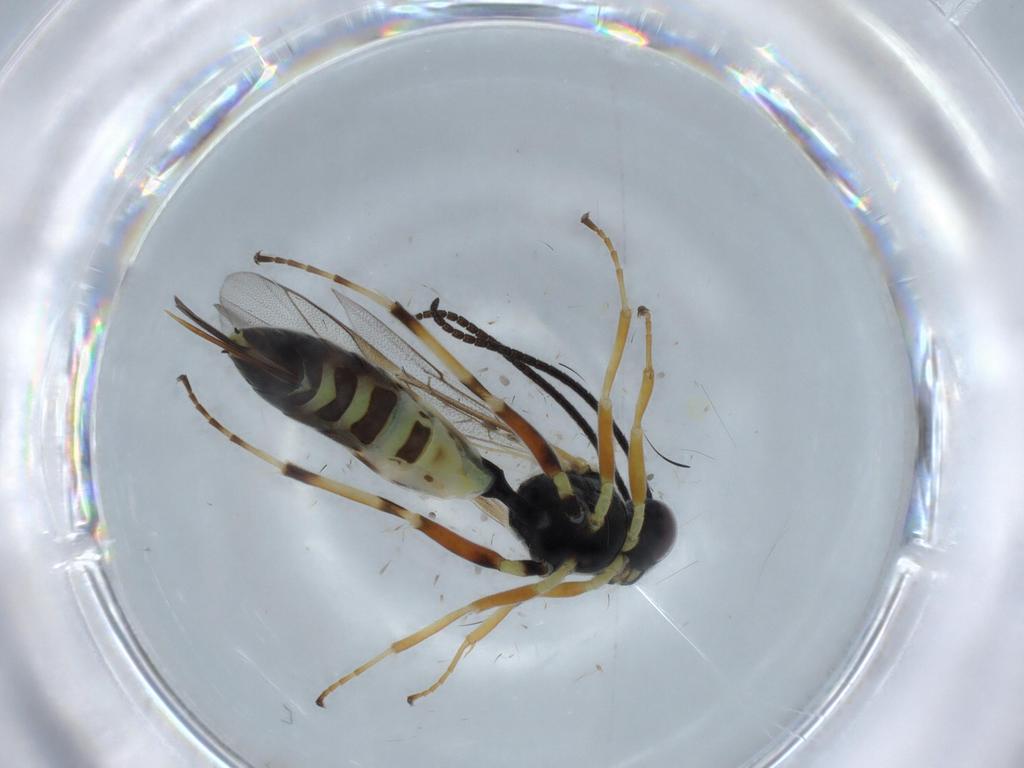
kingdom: Animalia
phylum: Arthropoda
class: Insecta
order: Hymenoptera
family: Ichneumonidae
